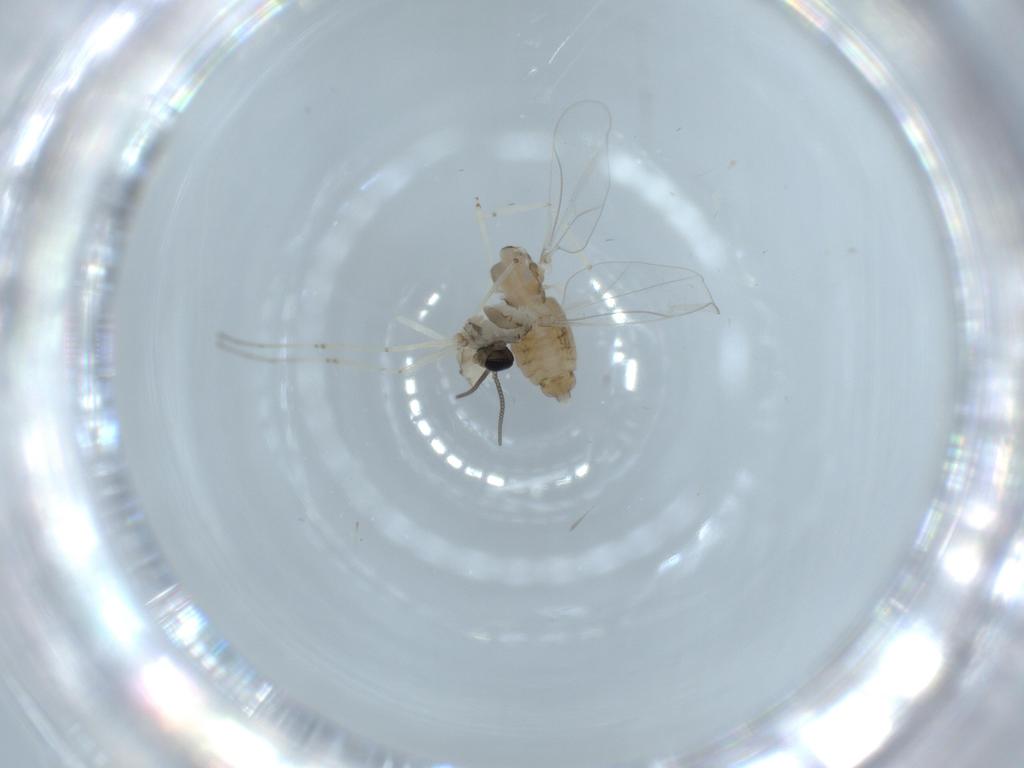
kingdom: Animalia
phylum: Arthropoda
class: Insecta
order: Diptera
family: Cecidomyiidae
